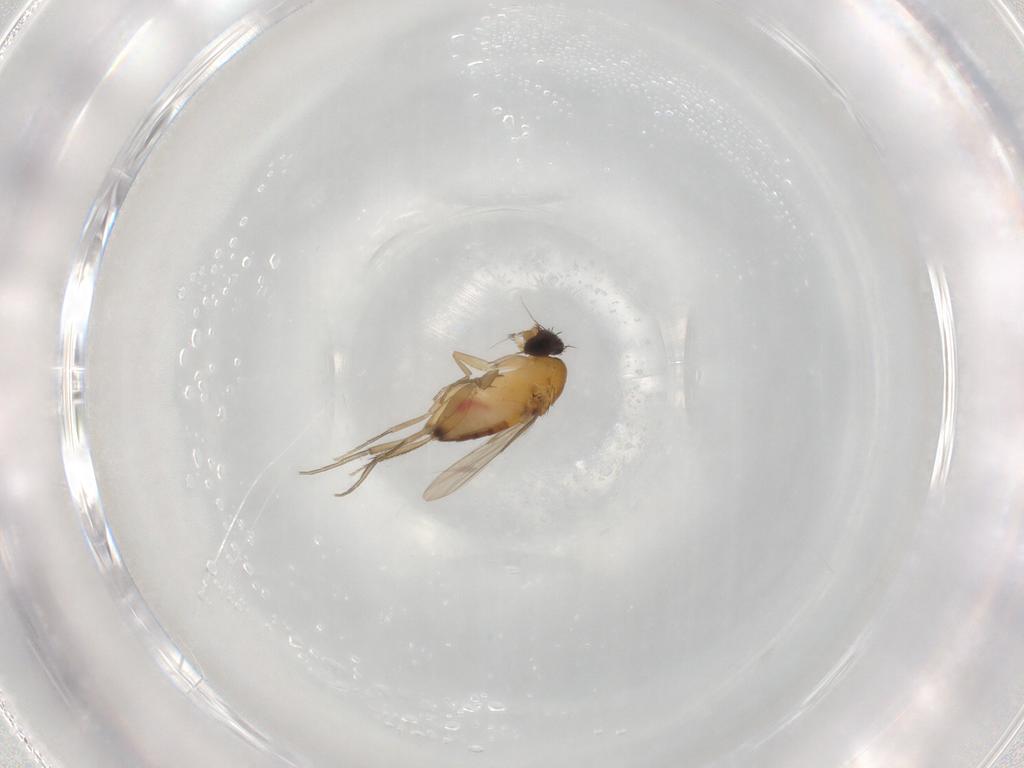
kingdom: Animalia
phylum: Arthropoda
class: Insecta
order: Diptera
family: Phoridae
